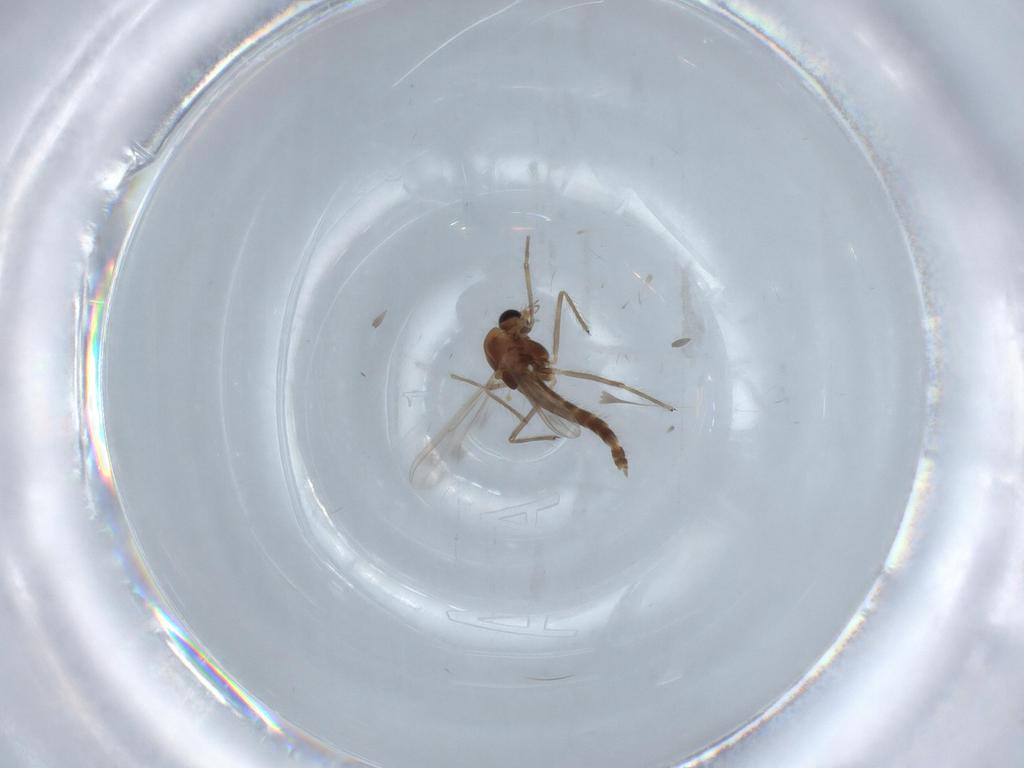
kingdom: Animalia
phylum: Arthropoda
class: Insecta
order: Diptera
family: Chironomidae
